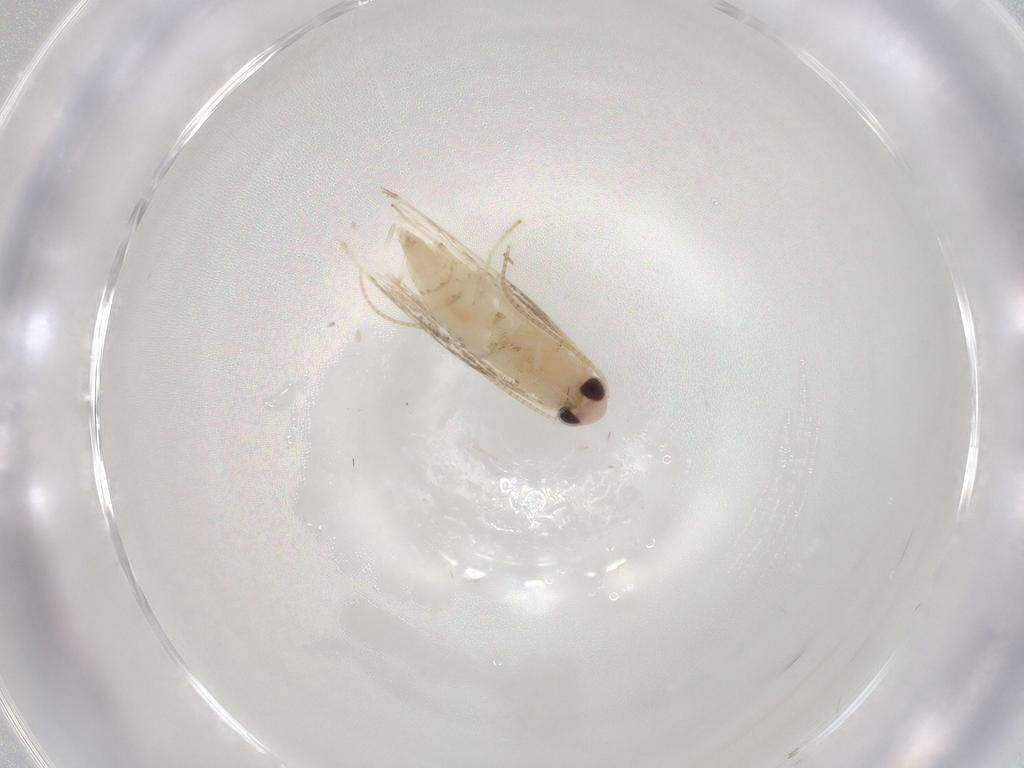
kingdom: Animalia
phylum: Arthropoda
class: Insecta
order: Lepidoptera
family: Gracillariidae
